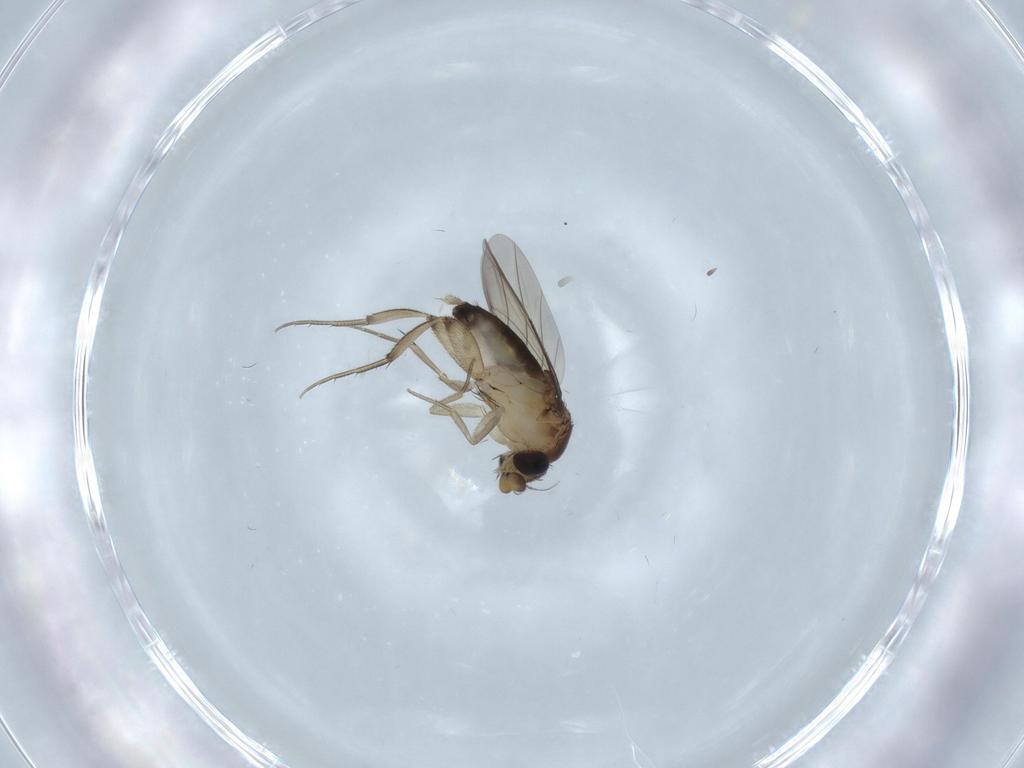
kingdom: Animalia
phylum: Arthropoda
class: Insecta
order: Diptera
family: Phoridae
